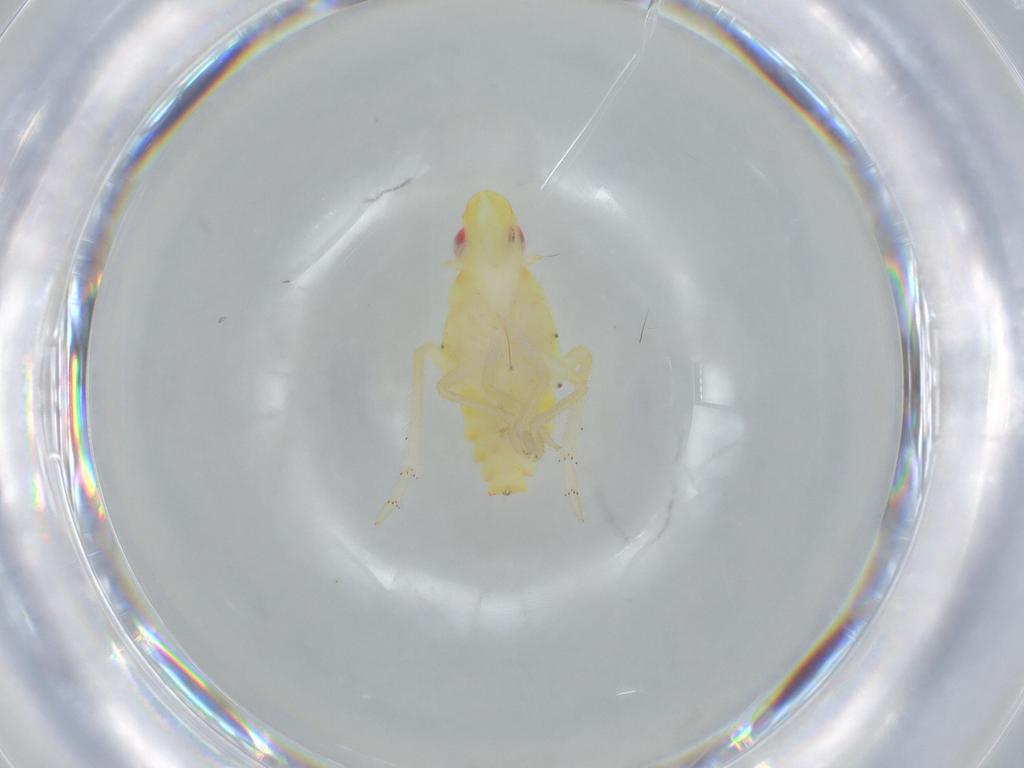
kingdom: Animalia
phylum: Arthropoda
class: Insecta
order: Hemiptera
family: Tropiduchidae
